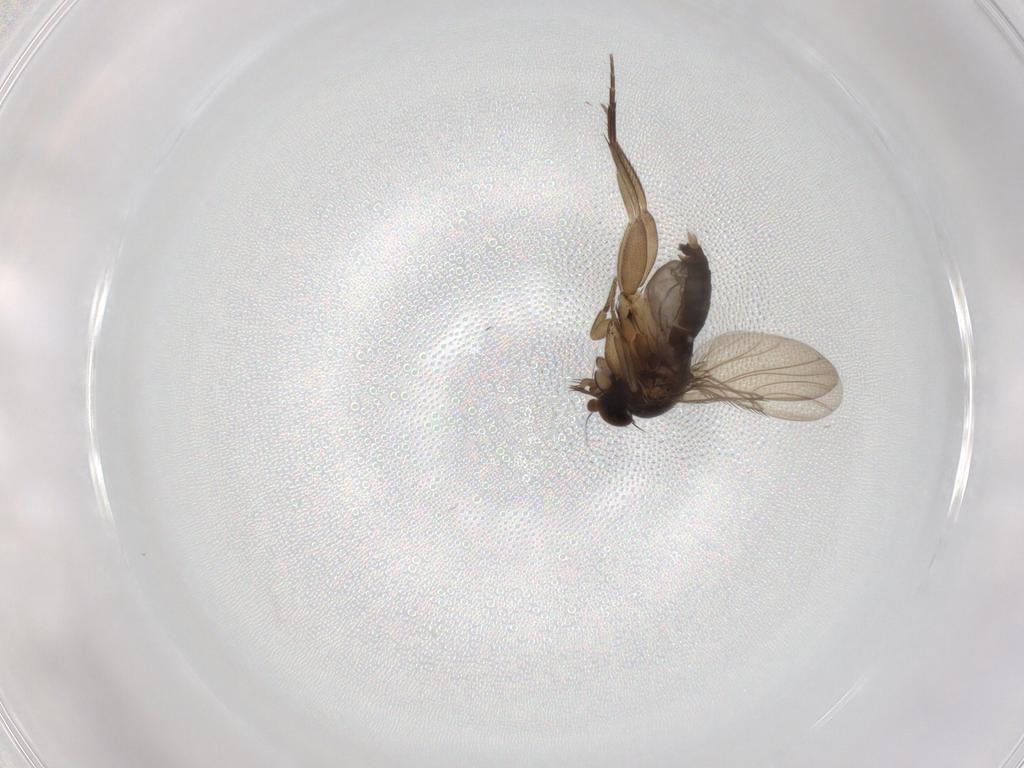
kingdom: Animalia
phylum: Arthropoda
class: Insecta
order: Diptera
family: Phoridae
